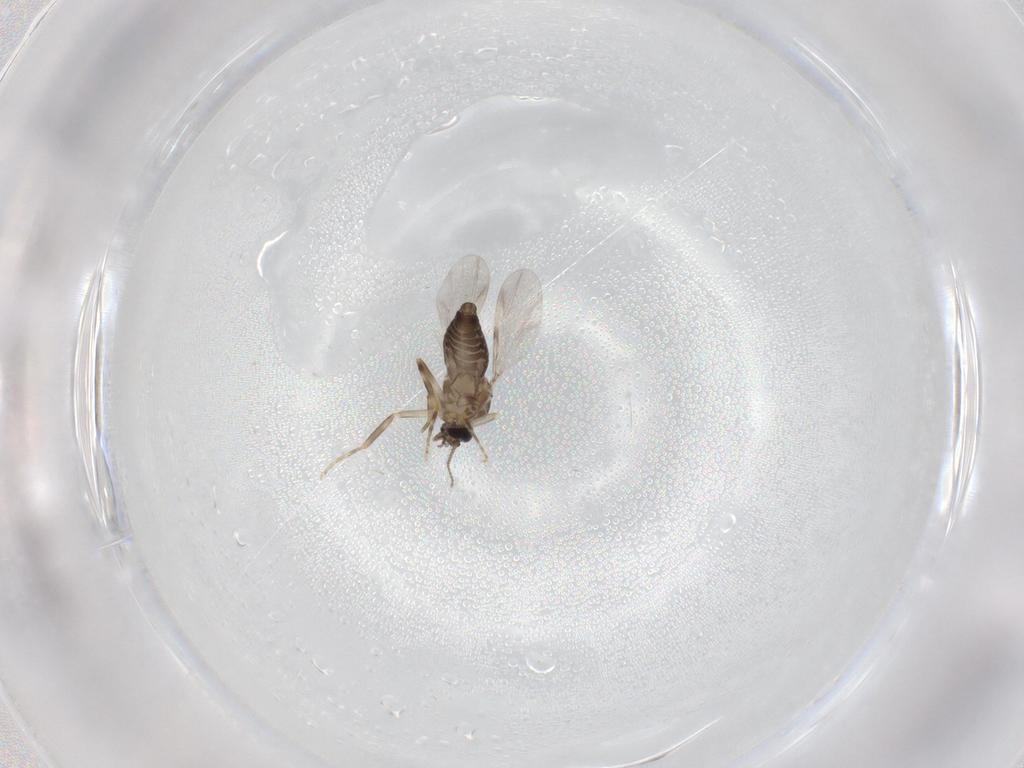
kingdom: Animalia
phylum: Arthropoda
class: Insecta
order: Diptera
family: Ceratopogonidae
